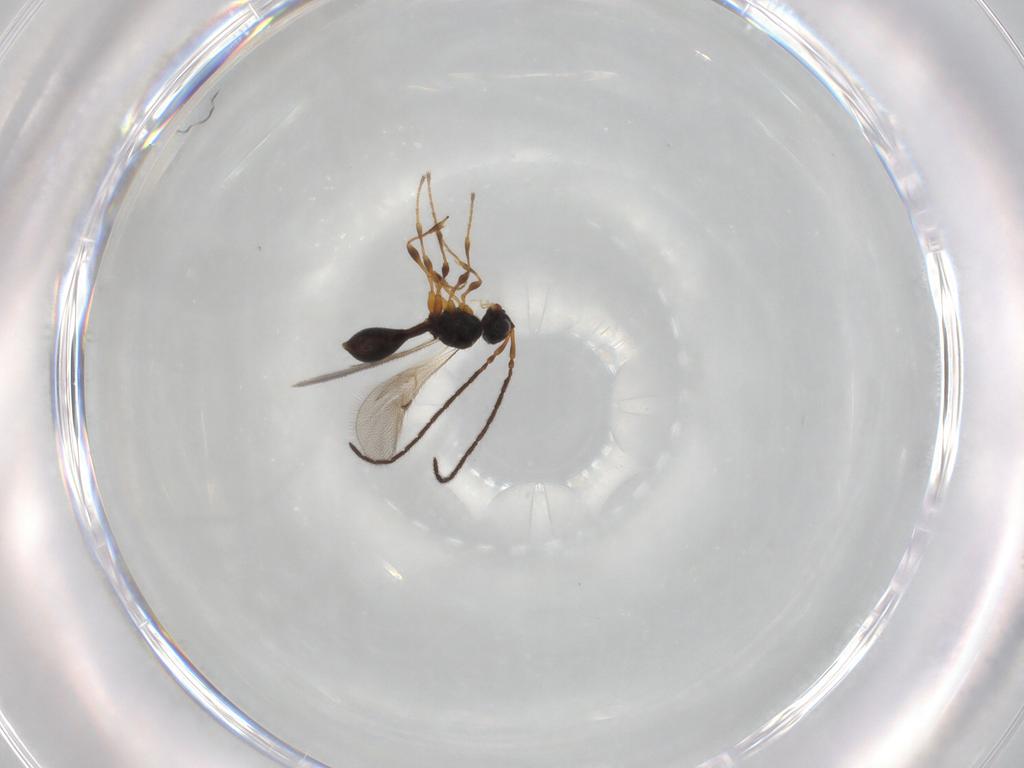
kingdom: Animalia
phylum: Arthropoda
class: Insecta
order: Hymenoptera
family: Diapriidae
